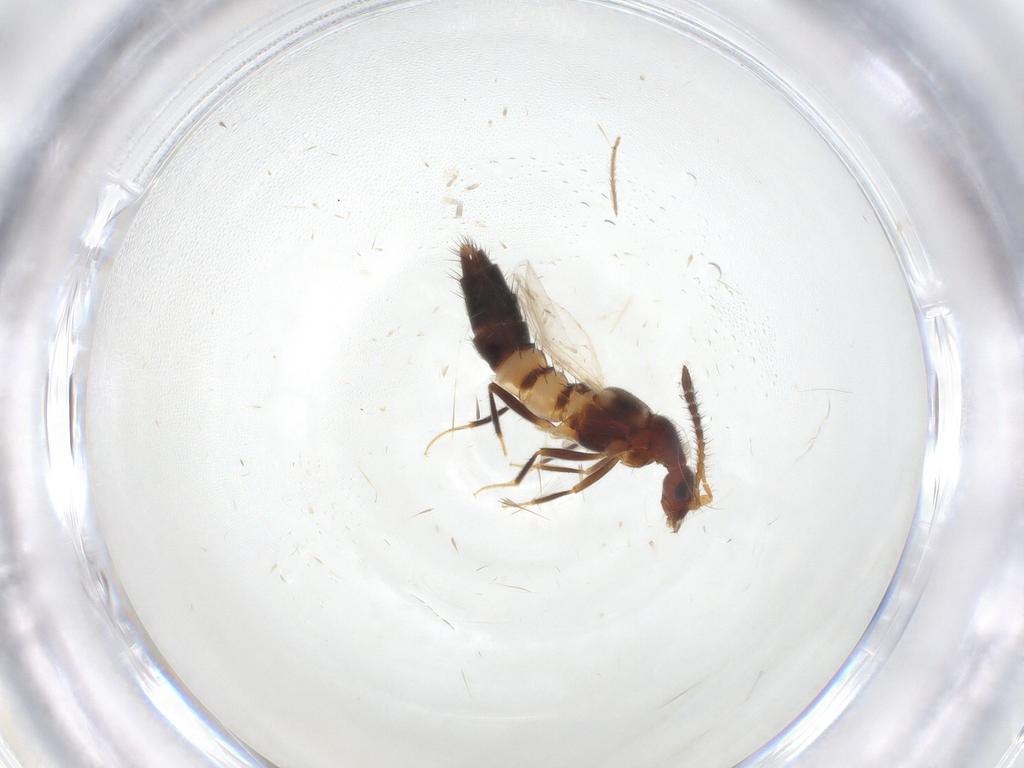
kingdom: Animalia
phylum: Arthropoda
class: Insecta
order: Coleoptera
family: Staphylinidae
